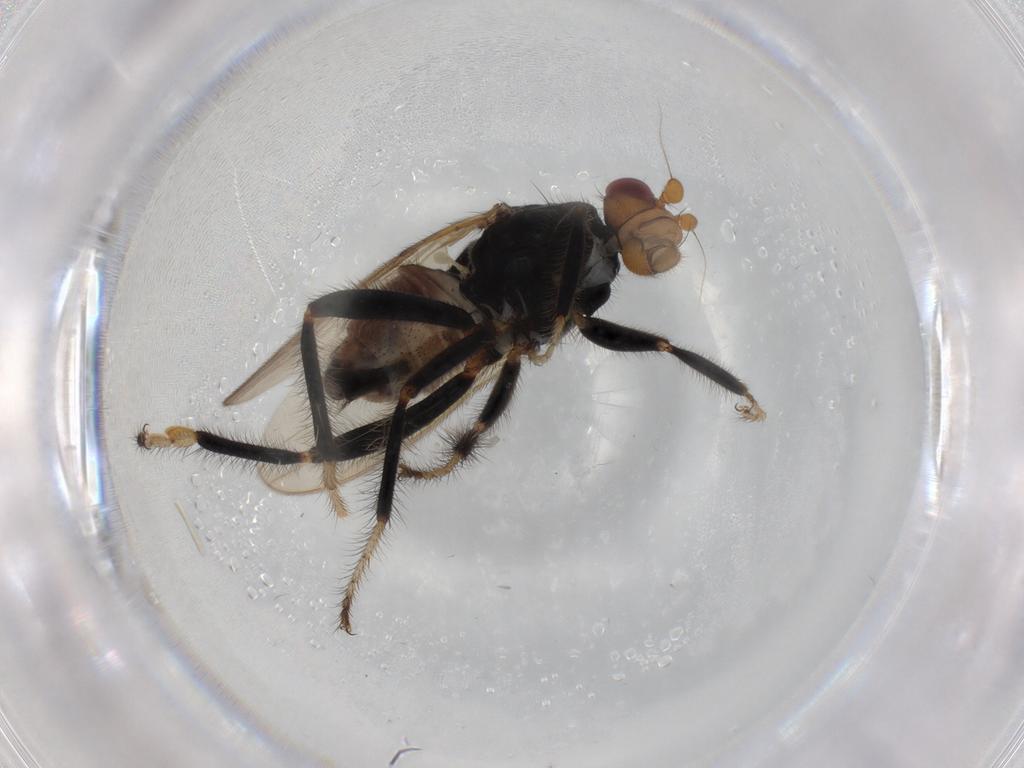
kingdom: Animalia
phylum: Arthropoda
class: Insecta
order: Diptera
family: Sphaeroceridae
